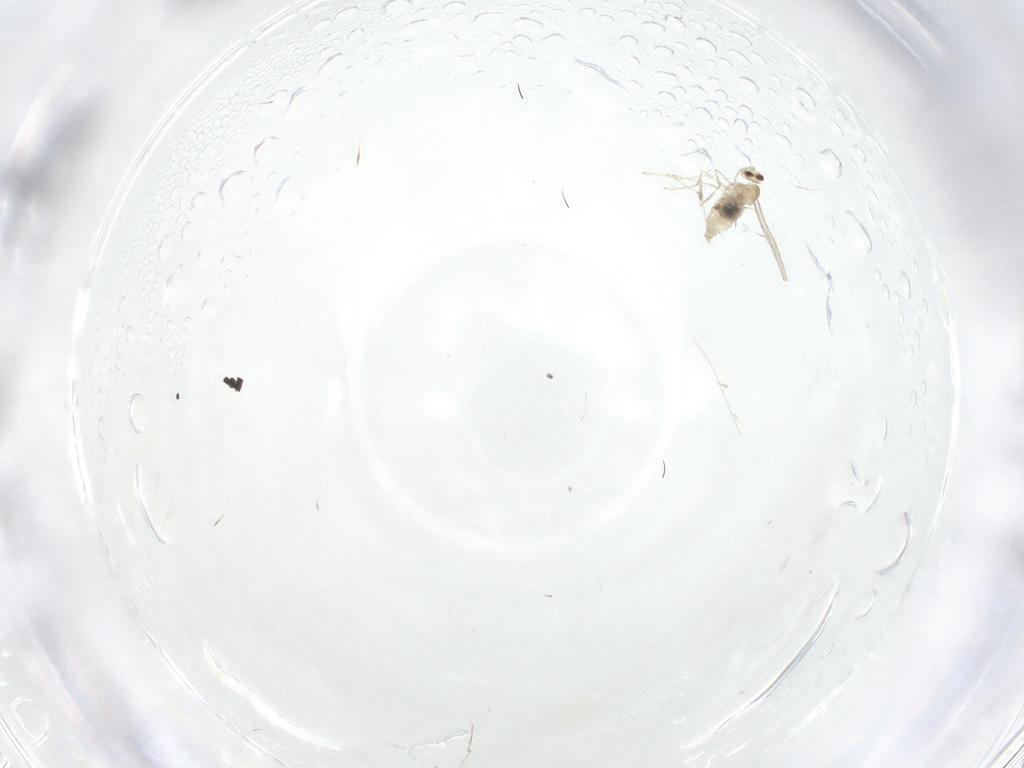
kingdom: Animalia
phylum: Arthropoda
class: Insecta
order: Diptera
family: Cecidomyiidae
